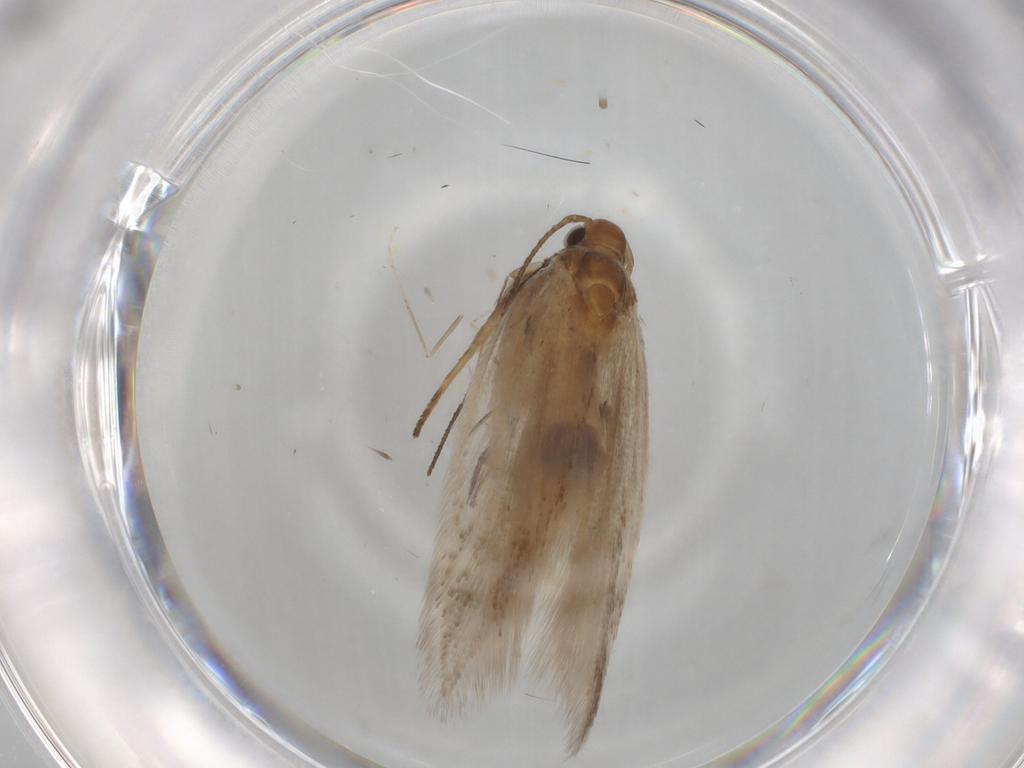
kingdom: Animalia
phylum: Arthropoda
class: Insecta
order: Lepidoptera
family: Gelechiidae
